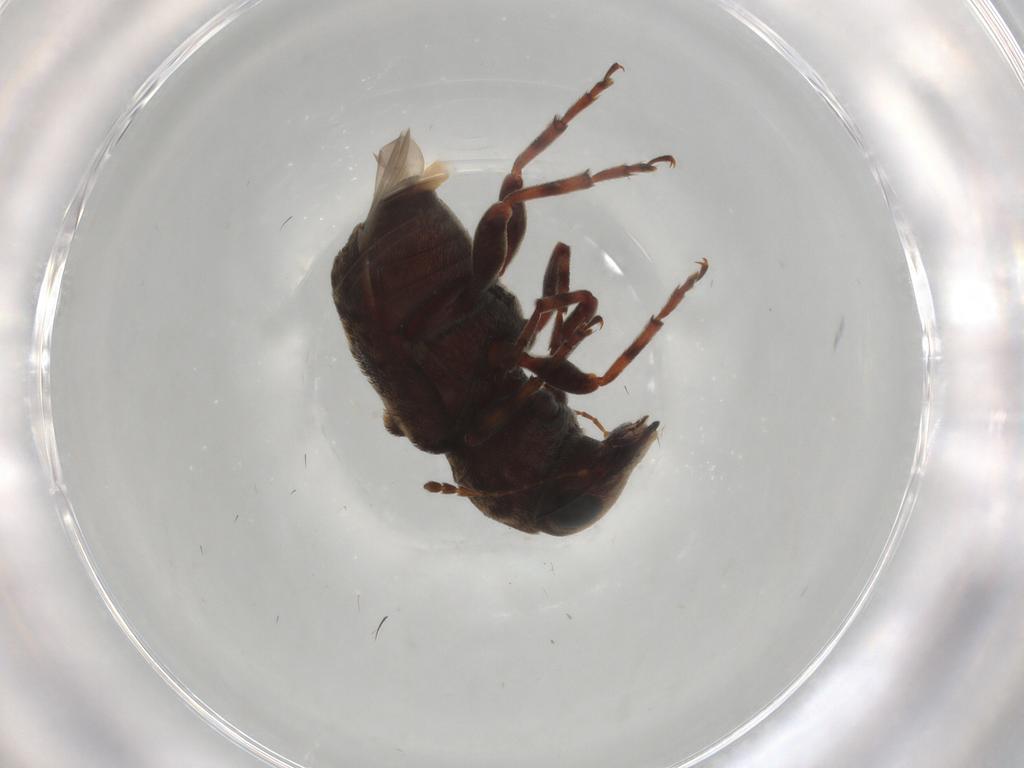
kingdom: Animalia
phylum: Arthropoda
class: Insecta
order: Coleoptera
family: Anthribidae
